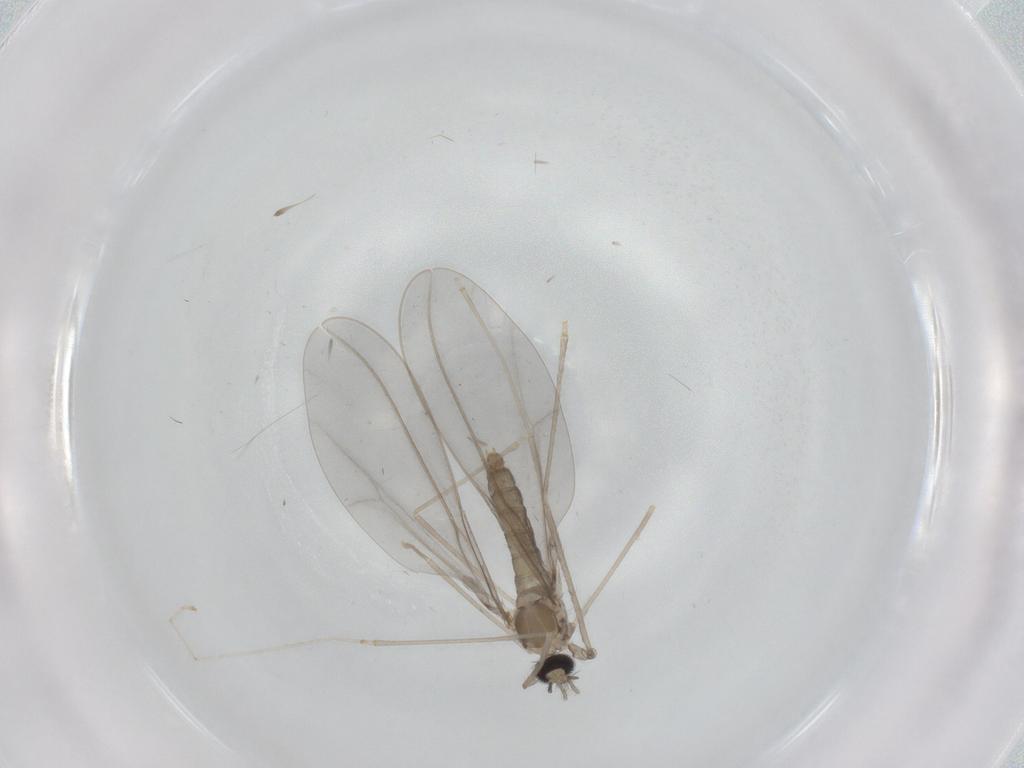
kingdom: Animalia
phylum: Arthropoda
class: Insecta
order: Diptera
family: Cecidomyiidae
